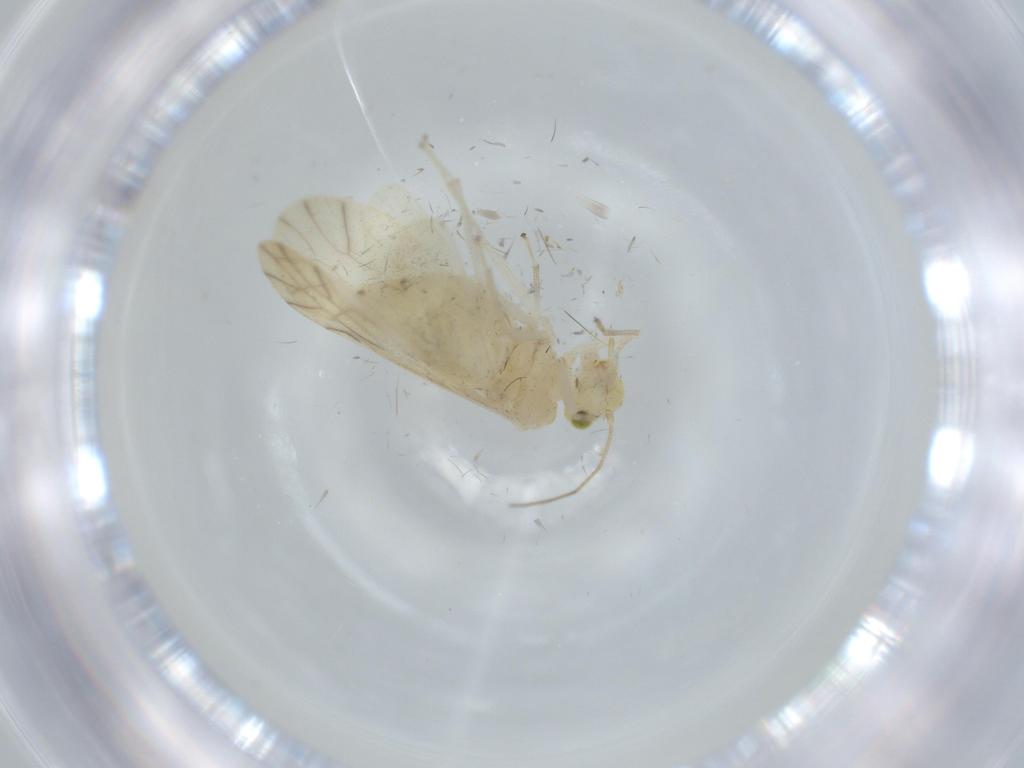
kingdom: Animalia
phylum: Arthropoda
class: Insecta
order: Psocodea
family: Caeciliusidae
